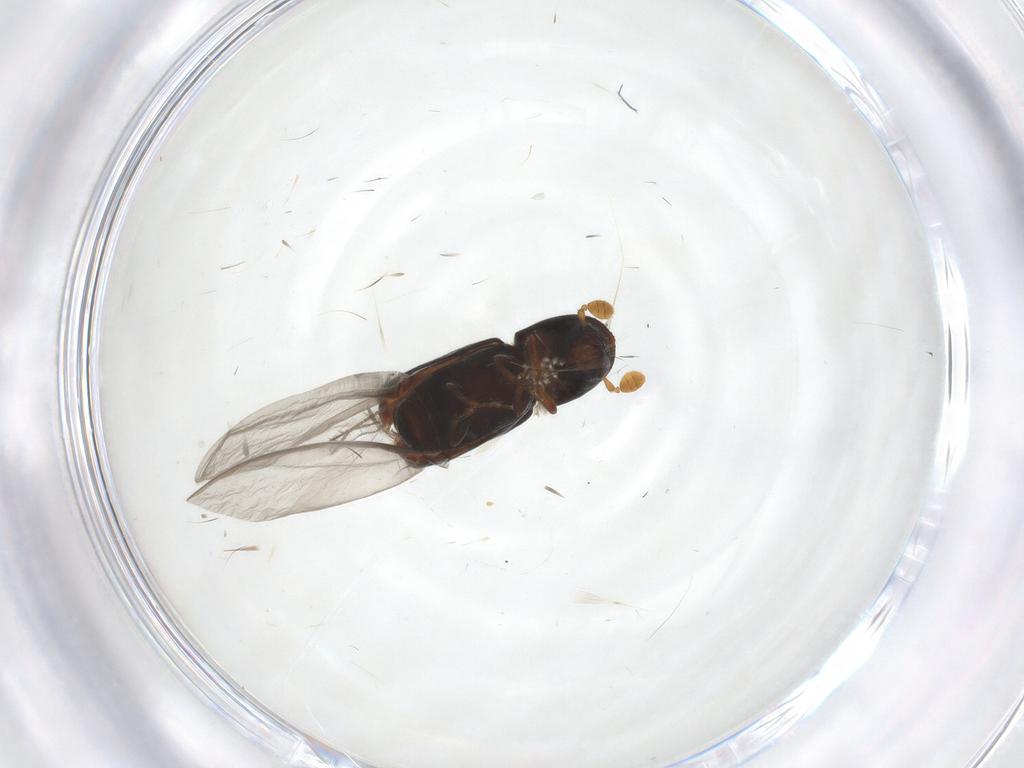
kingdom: Animalia
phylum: Arthropoda
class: Insecta
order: Coleoptera
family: Curculionidae
